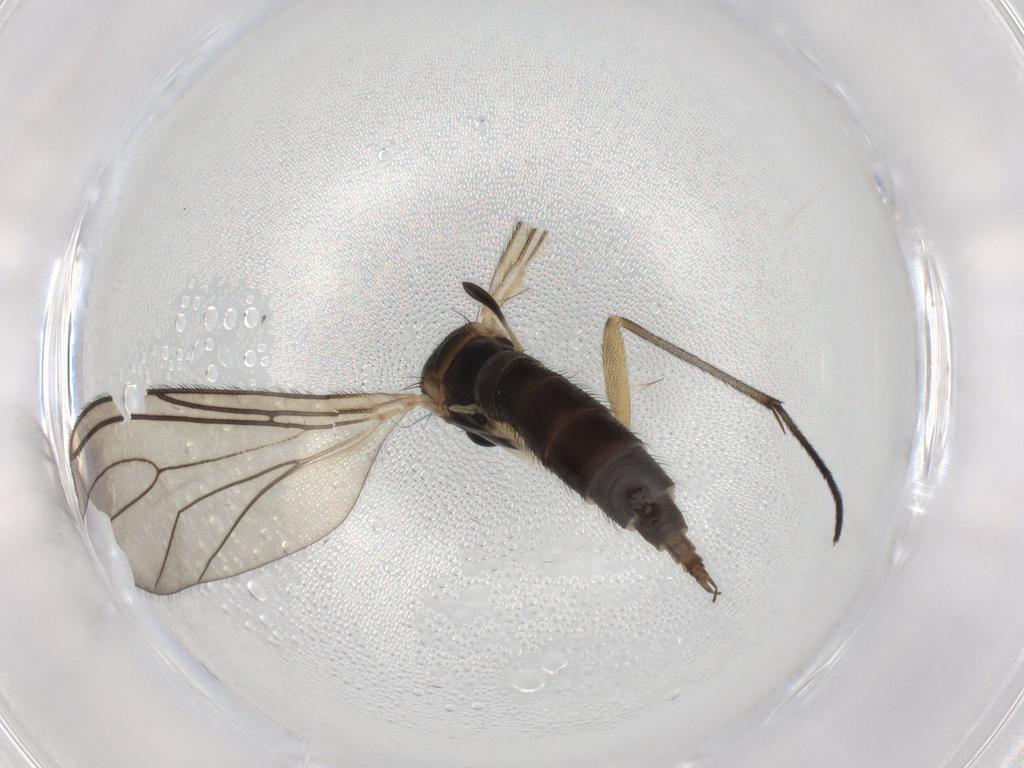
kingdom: Animalia
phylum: Arthropoda
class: Insecta
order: Diptera
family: Sciaridae
